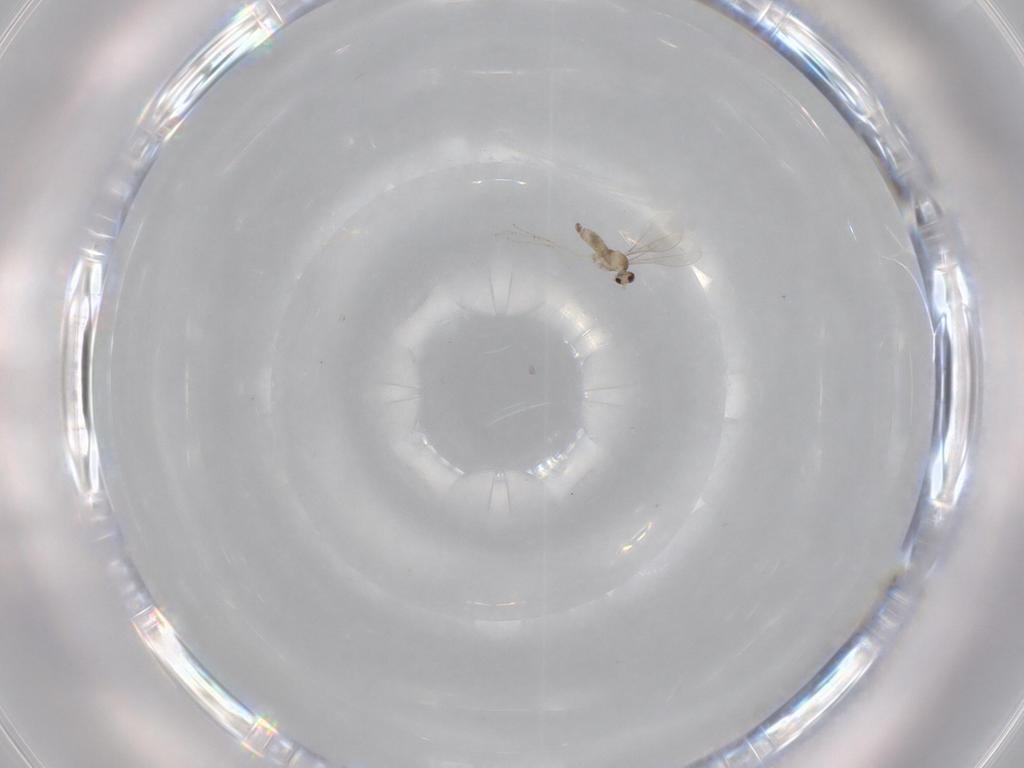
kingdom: Animalia
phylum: Arthropoda
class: Insecta
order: Diptera
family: Cecidomyiidae
